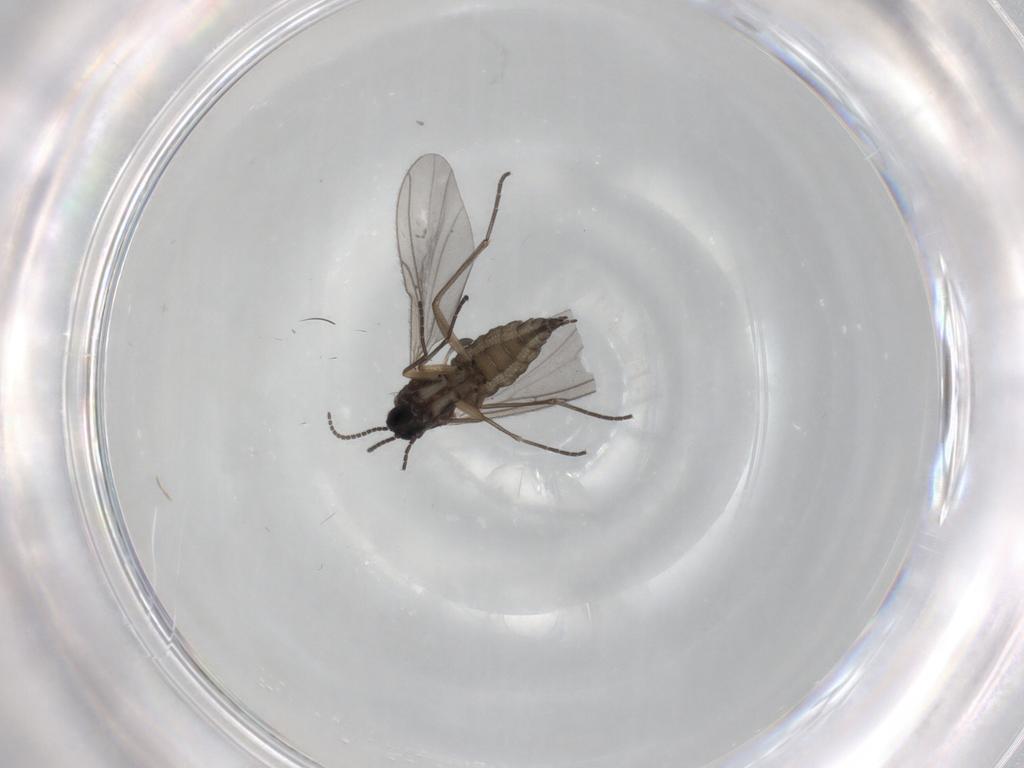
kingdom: Animalia
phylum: Arthropoda
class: Insecta
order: Diptera
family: Sciaridae
